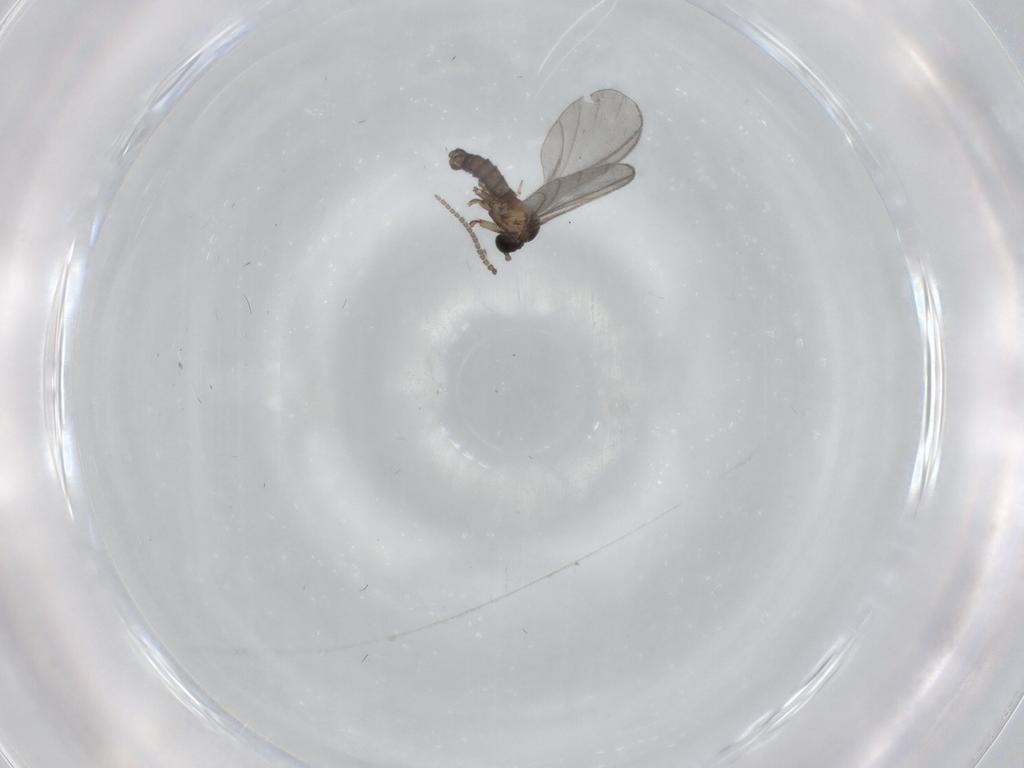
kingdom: Animalia
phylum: Arthropoda
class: Insecta
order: Diptera
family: Sciaridae
